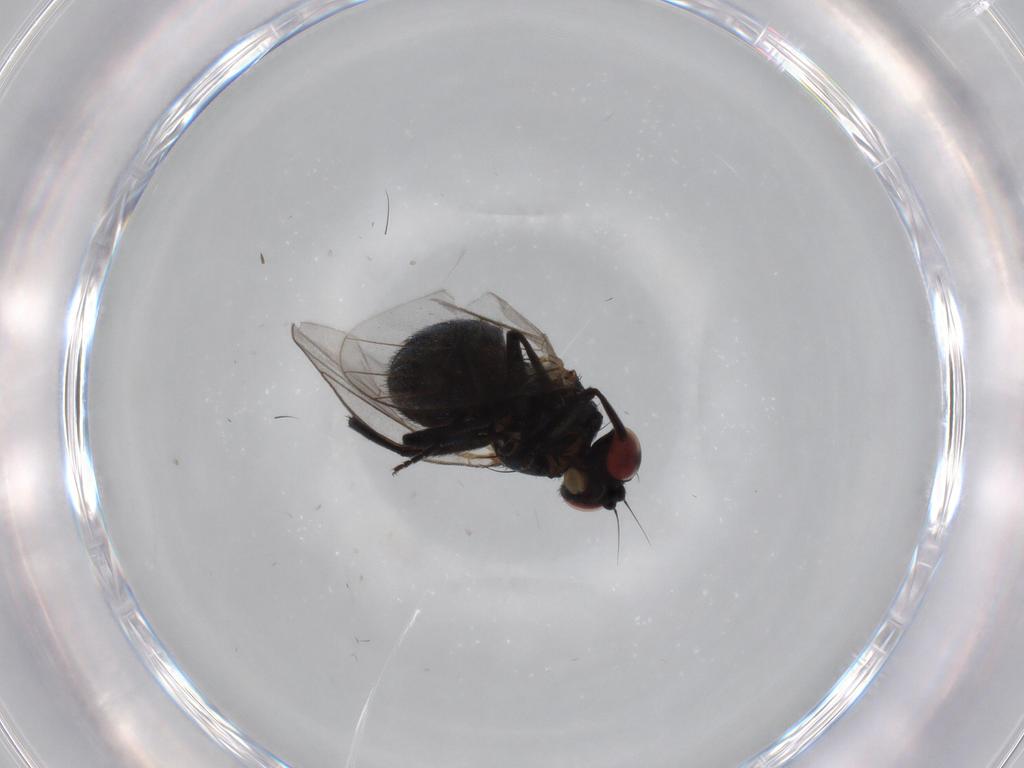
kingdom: Animalia
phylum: Arthropoda
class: Insecta
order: Diptera
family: Agromyzidae
